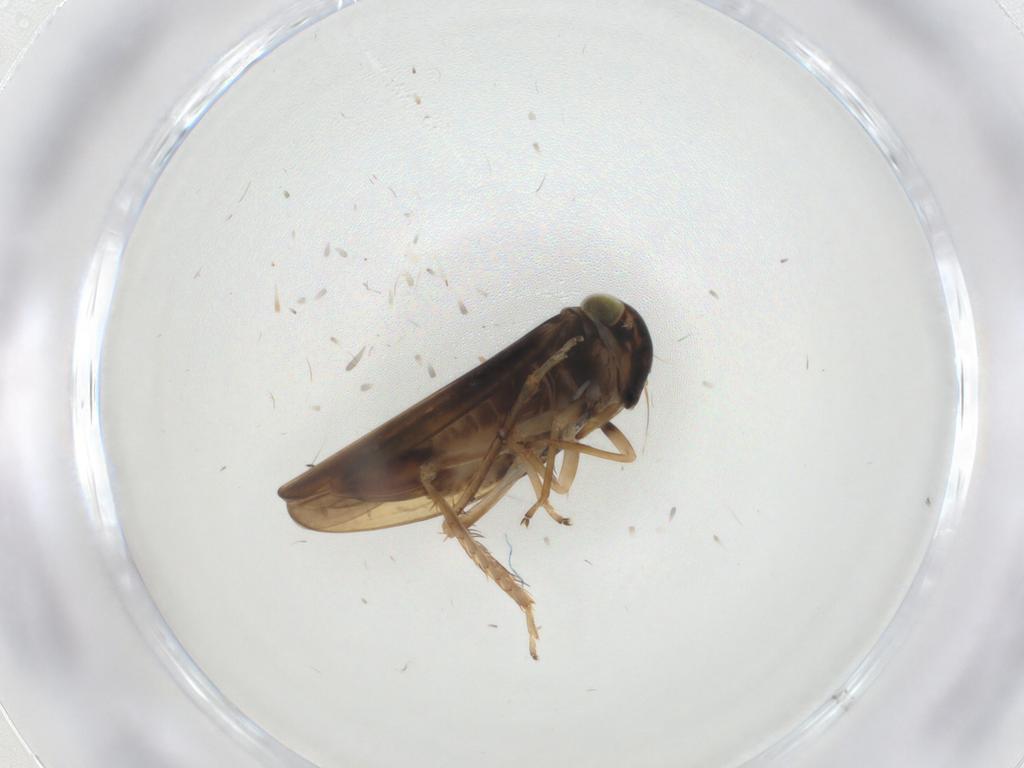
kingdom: Animalia
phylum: Arthropoda
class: Insecta
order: Hemiptera
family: Cicadellidae
